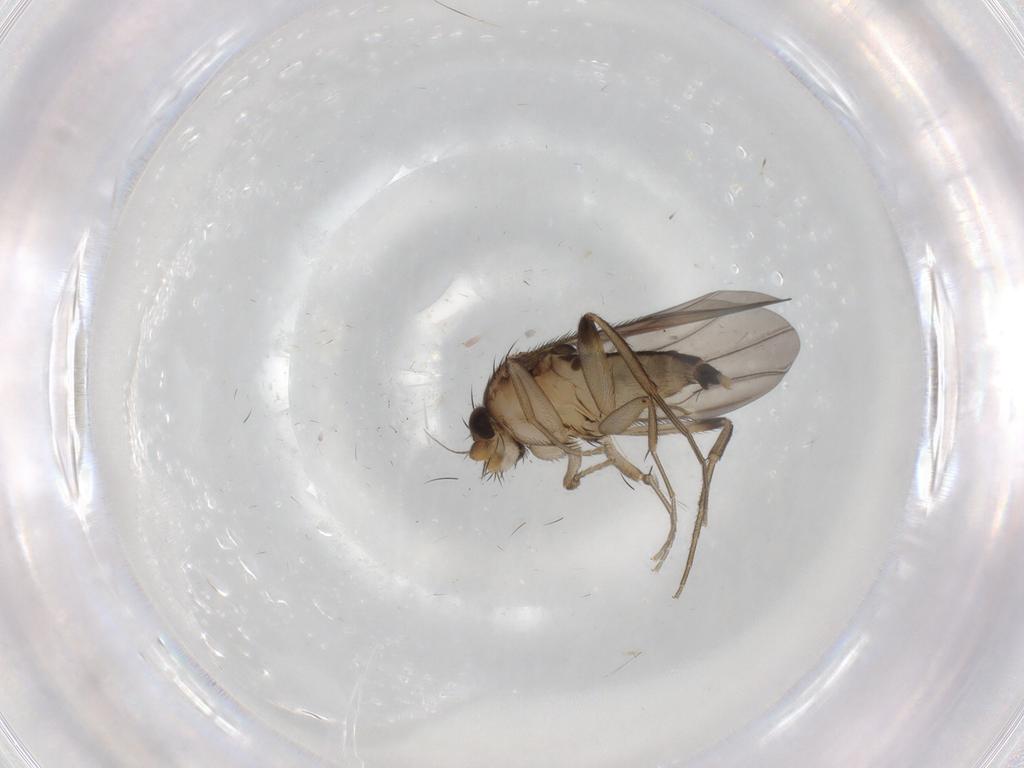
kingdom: Animalia
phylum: Arthropoda
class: Insecta
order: Diptera
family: Phoridae
